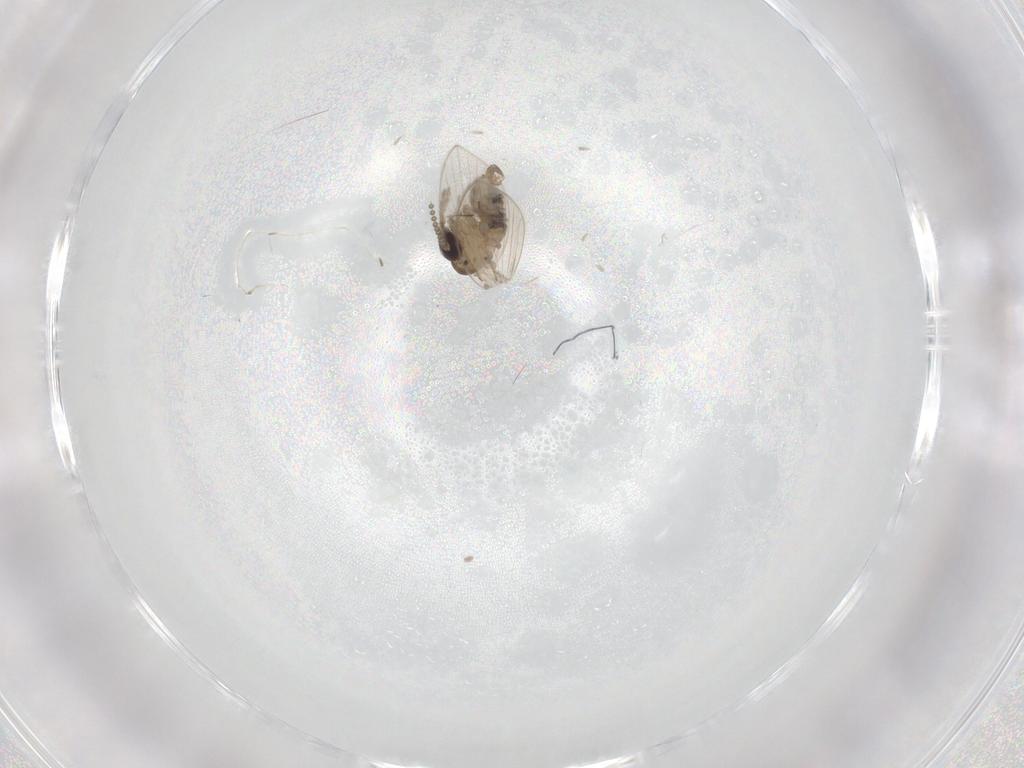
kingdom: Animalia
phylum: Arthropoda
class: Insecta
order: Diptera
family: Psychodidae
